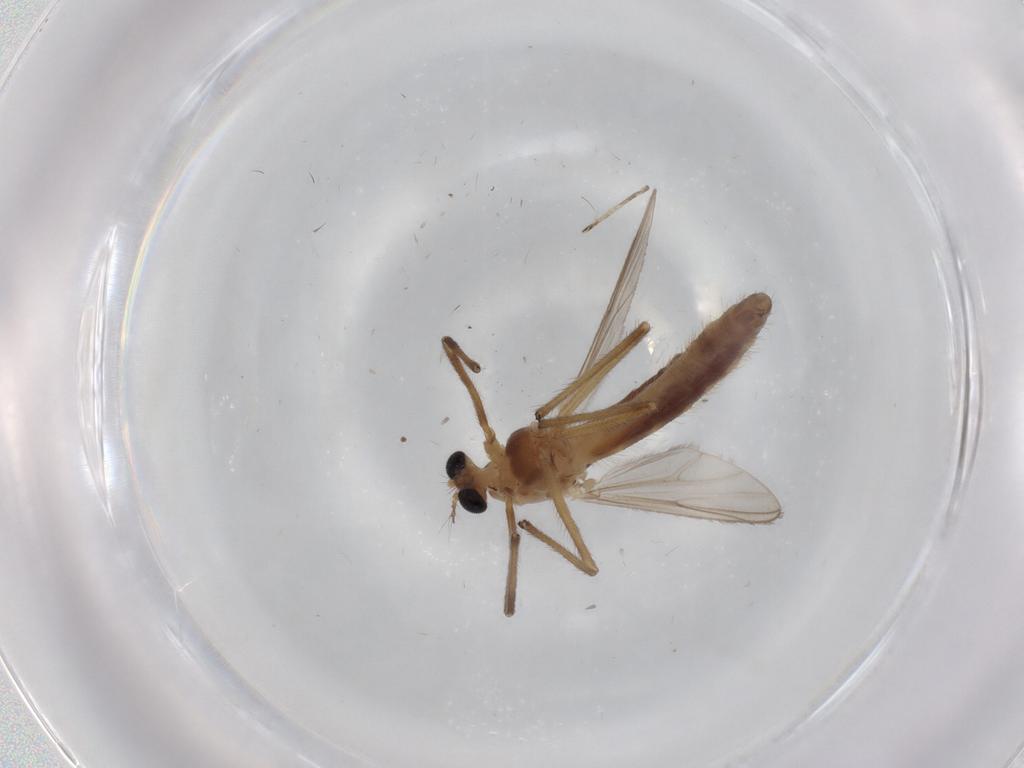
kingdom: Animalia
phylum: Arthropoda
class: Insecta
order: Diptera
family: Chironomidae
